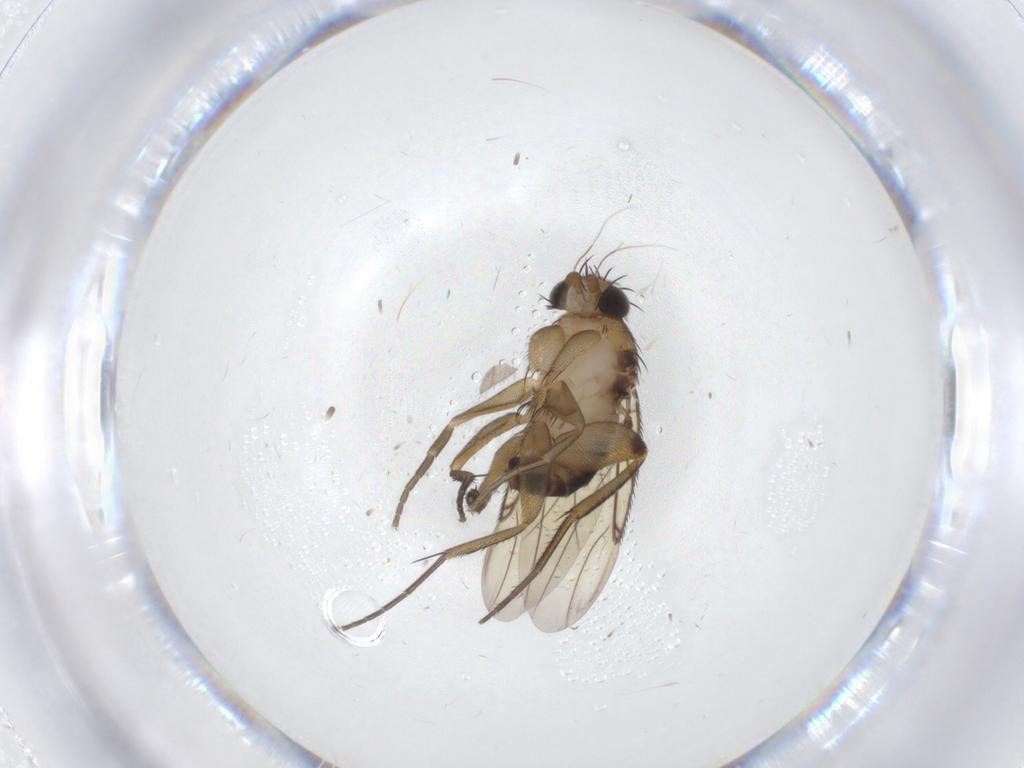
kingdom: Animalia
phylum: Arthropoda
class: Insecta
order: Diptera
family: Phoridae
